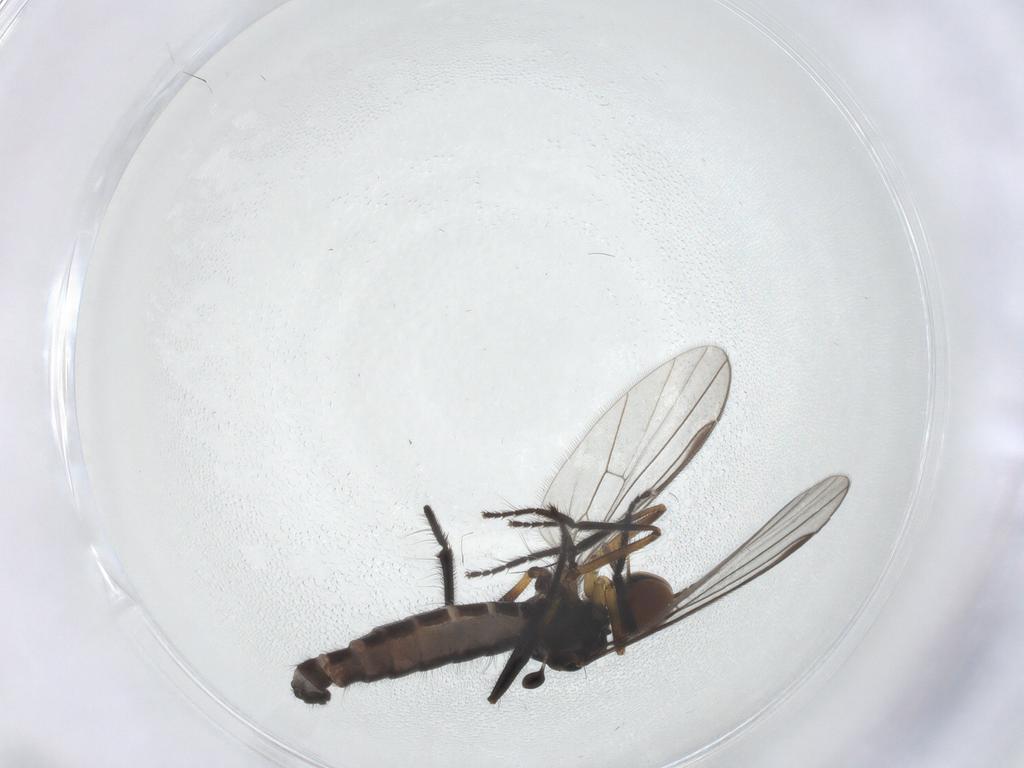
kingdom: Animalia
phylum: Arthropoda
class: Insecta
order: Diptera
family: Empididae
